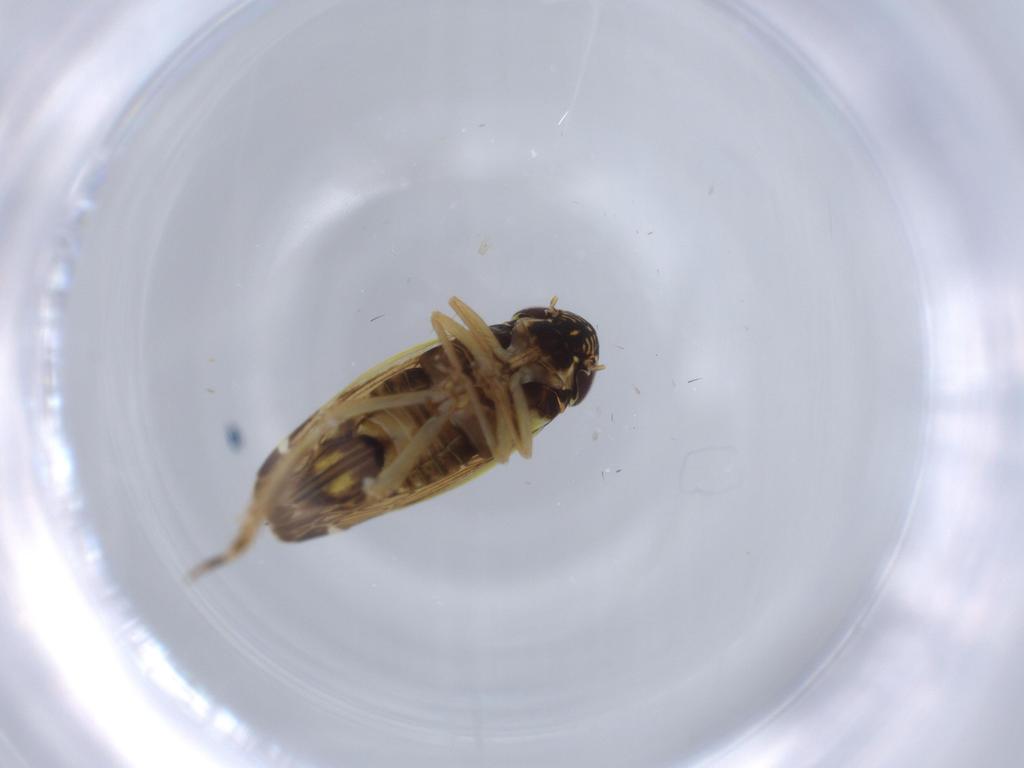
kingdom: Animalia
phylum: Arthropoda
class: Insecta
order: Hemiptera
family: Cicadellidae
